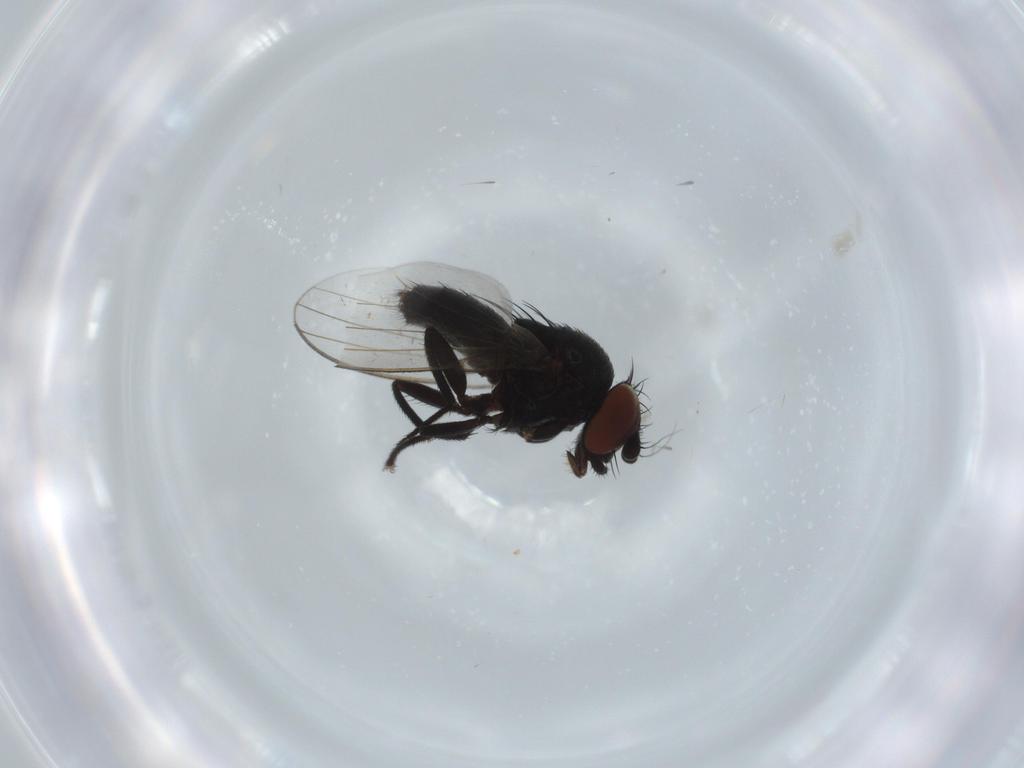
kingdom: Animalia
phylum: Arthropoda
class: Insecta
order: Diptera
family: Milichiidae
